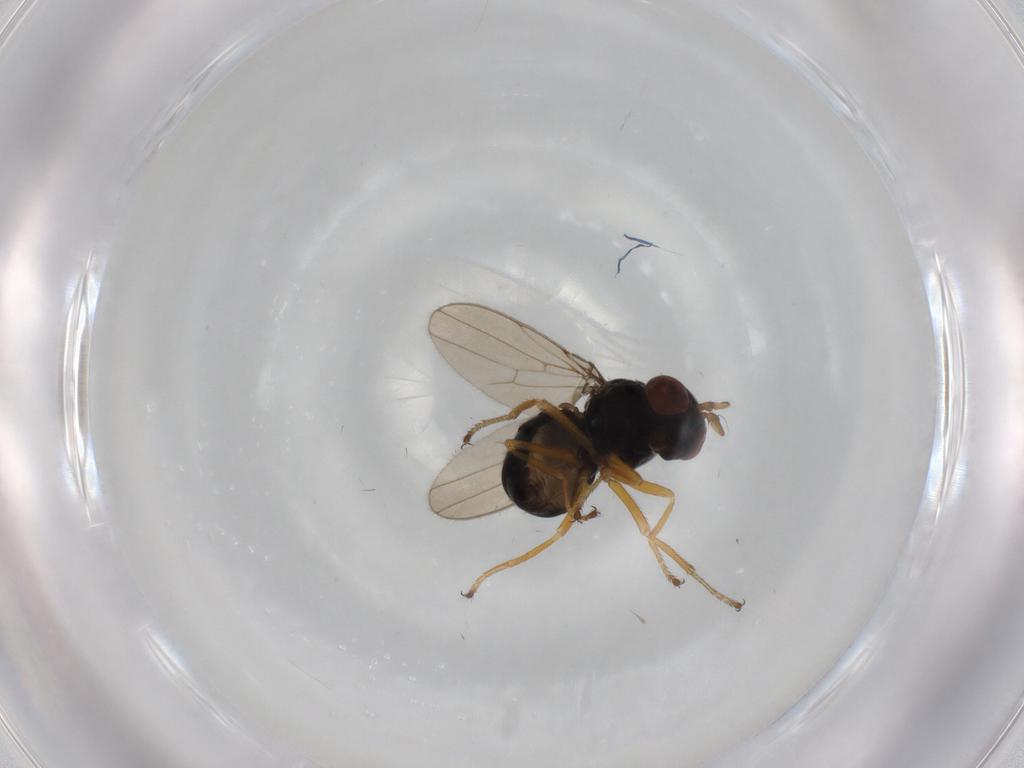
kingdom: Animalia
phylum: Arthropoda
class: Insecta
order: Diptera
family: Ephydridae
